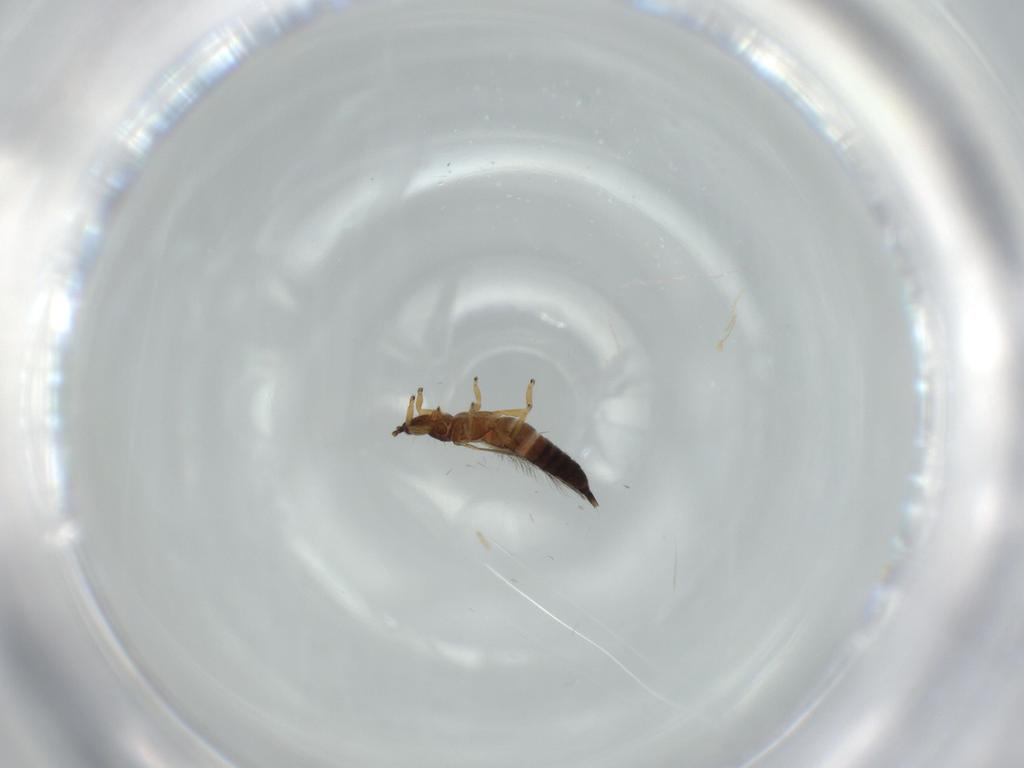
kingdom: Animalia
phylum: Arthropoda
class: Insecta
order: Thysanoptera
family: Phlaeothripidae
